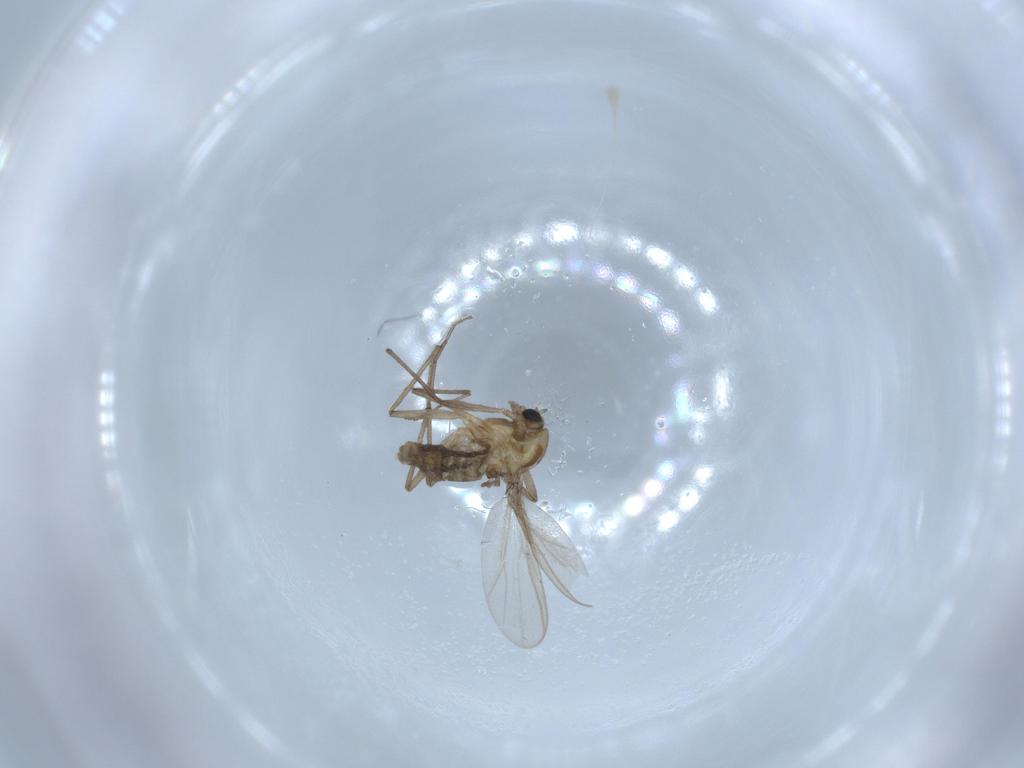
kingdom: Animalia
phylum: Arthropoda
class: Insecta
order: Diptera
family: Chironomidae
